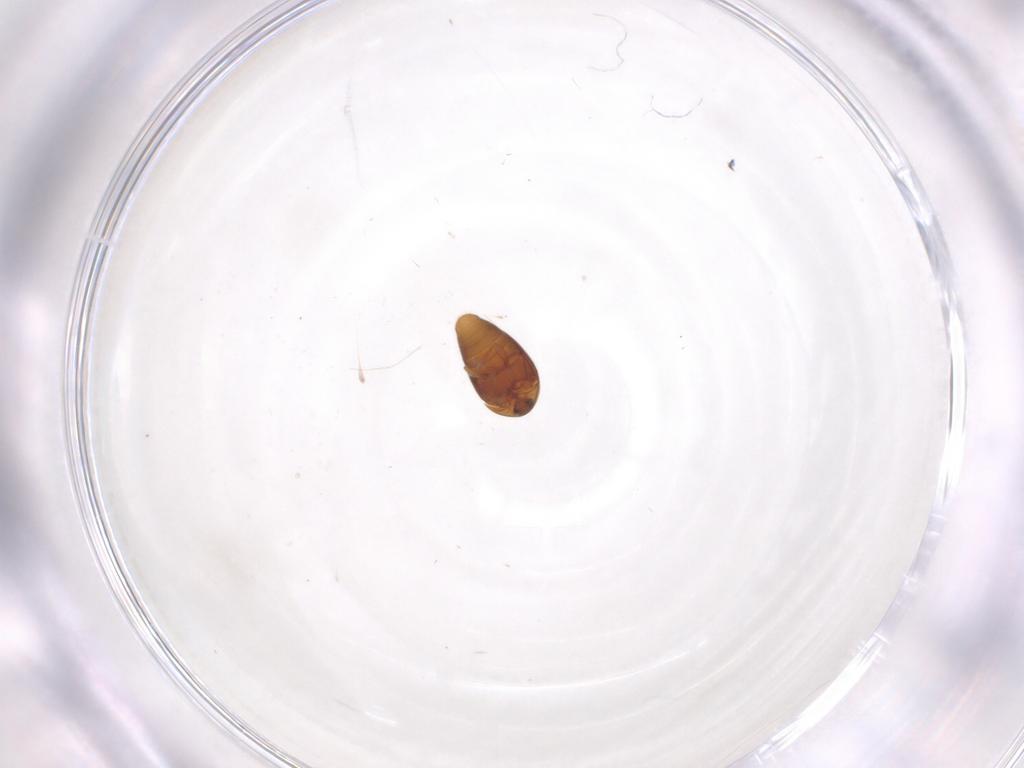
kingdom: Animalia
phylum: Arthropoda
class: Insecta
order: Coleoptera
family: Corylophidae
